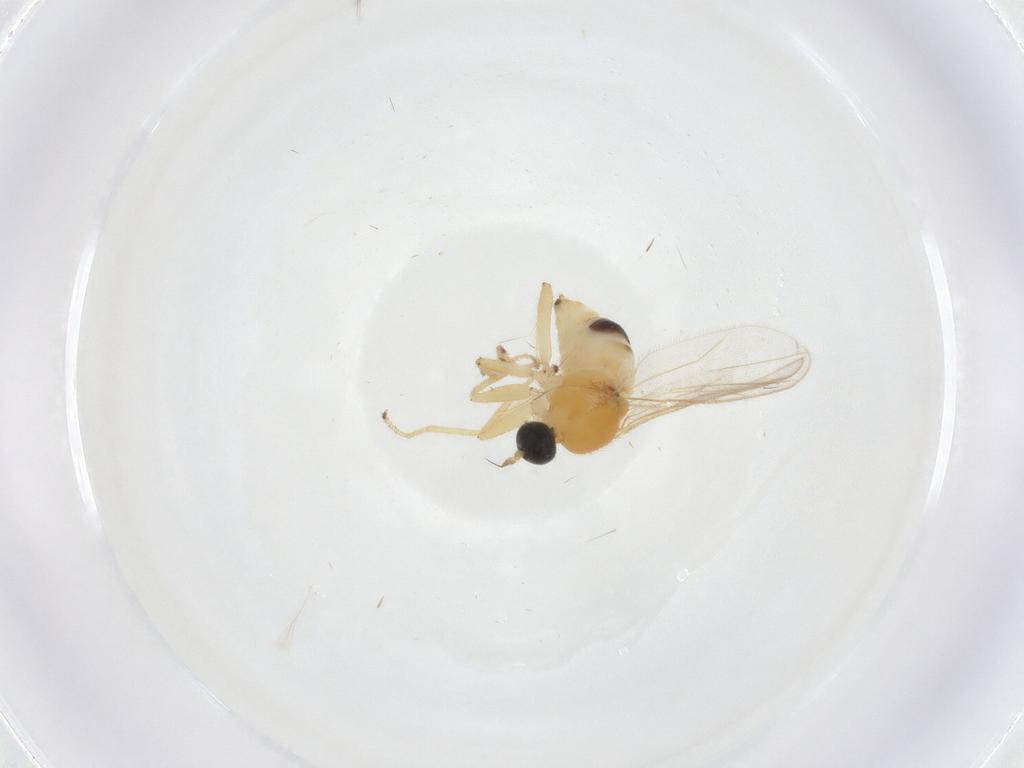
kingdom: Animalia
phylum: Arthropoda
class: Insecta
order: Diptera
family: Hybotidae
